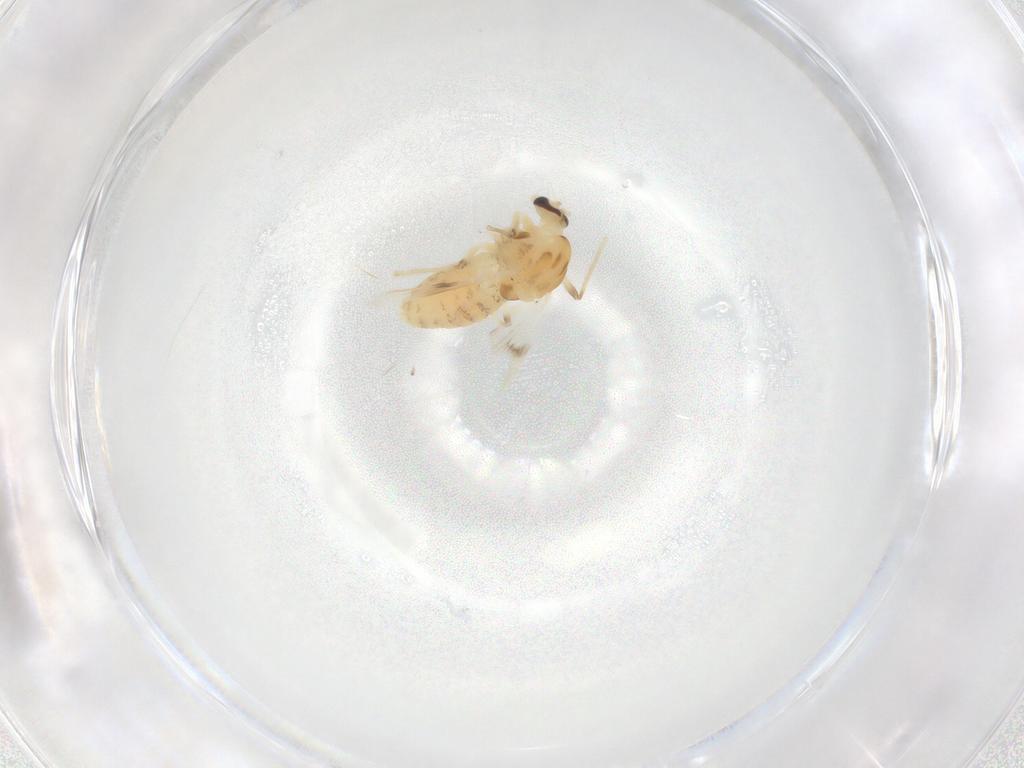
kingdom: Animalia
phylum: Arthropoda
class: Insecta
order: Diptera
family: Chironomidae
